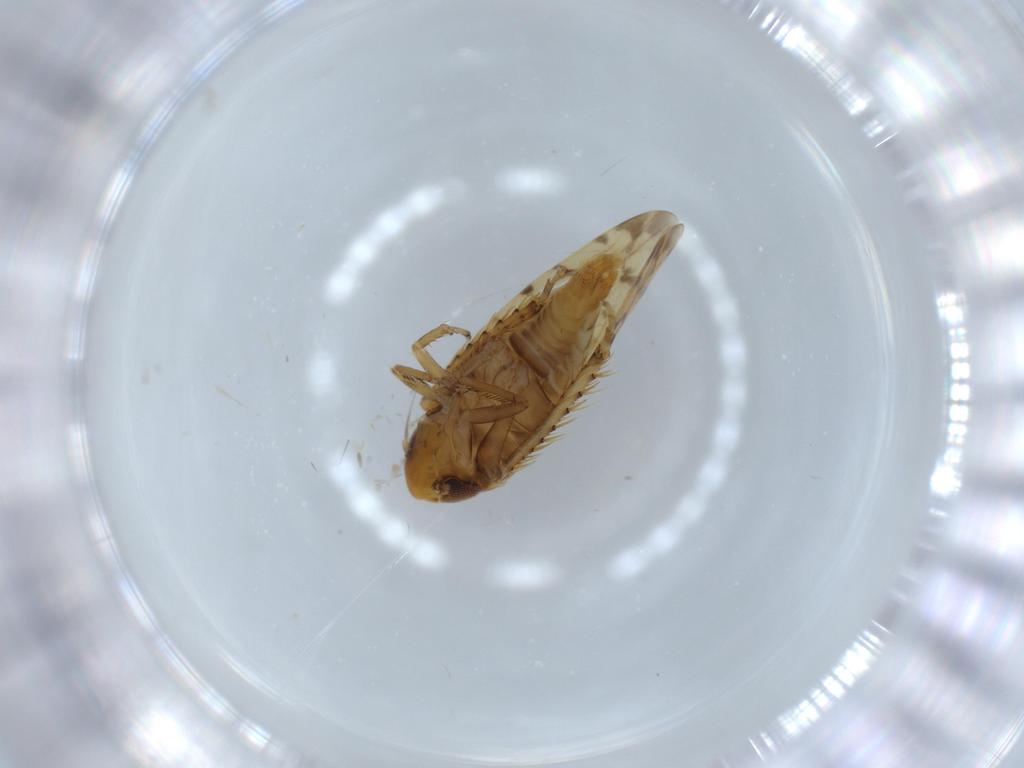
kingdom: Animalia
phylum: Arthropoda
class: Insecta
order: Hemiptera
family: Cicadellidae
